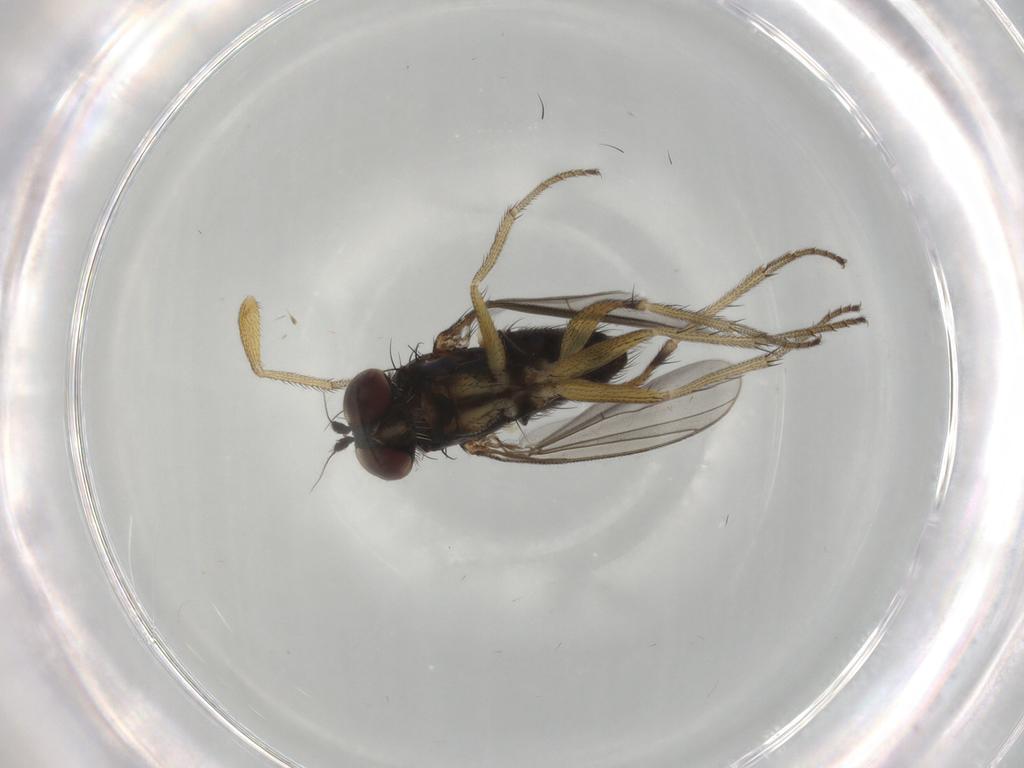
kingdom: Animalia
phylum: Arthropoda
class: Insecta
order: Diptera
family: Dolichopodidae
